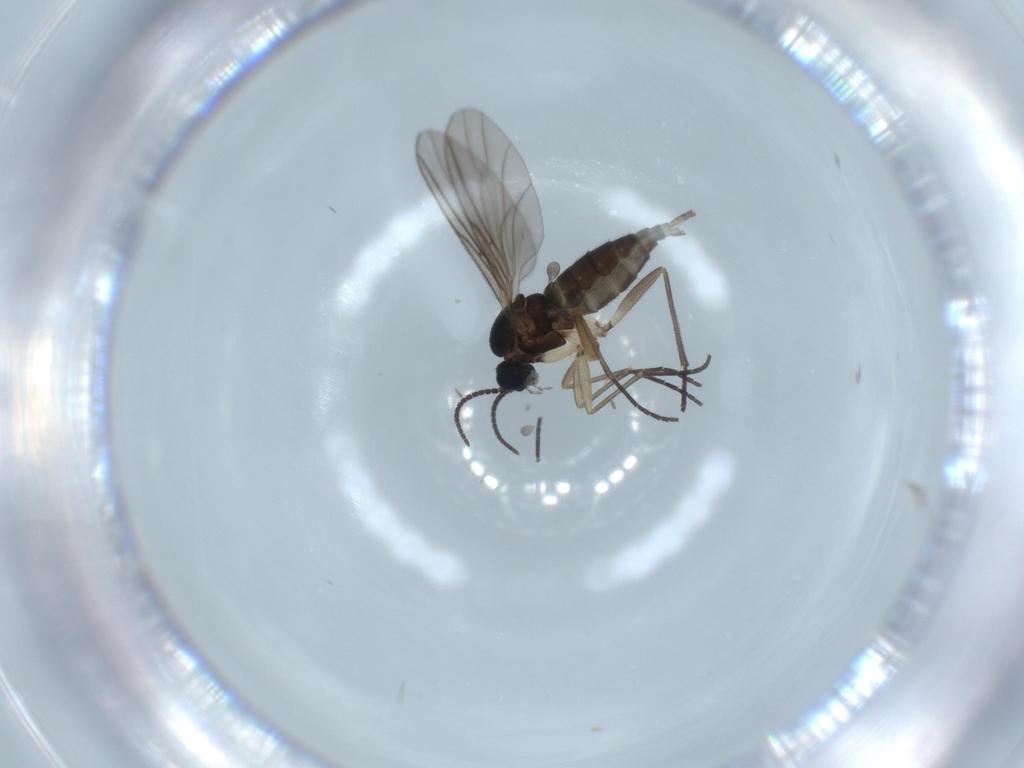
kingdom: Animalia
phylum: Arthropoda
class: Insecta
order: Diptera
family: Sciaridae
